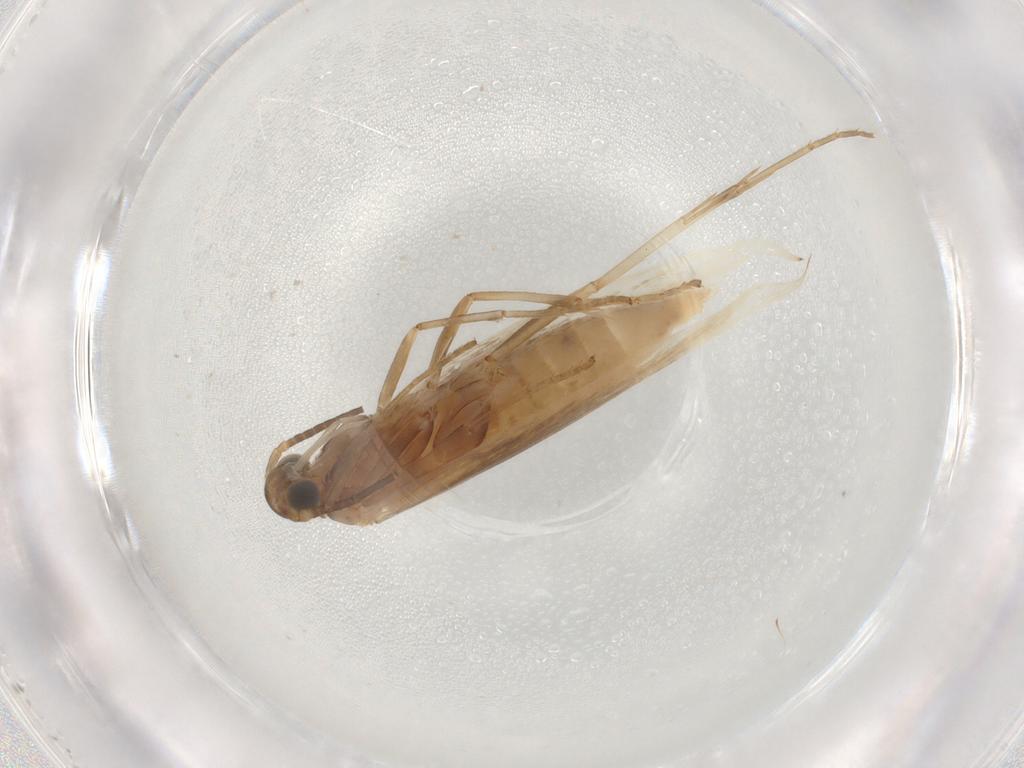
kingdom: Animalia
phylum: Arthropoda
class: Insecta
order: Lepidoptera
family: Coleophoridae
